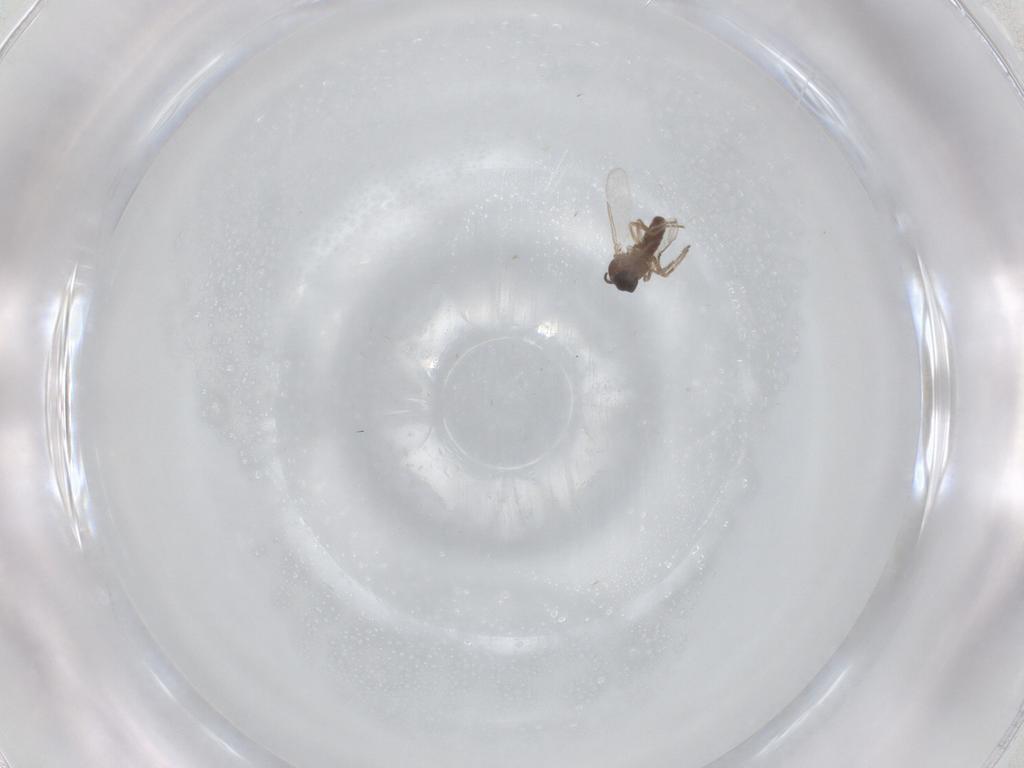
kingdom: Animalia
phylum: Arthropoda
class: Insecta
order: Diptera
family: Ceratopogonidae
